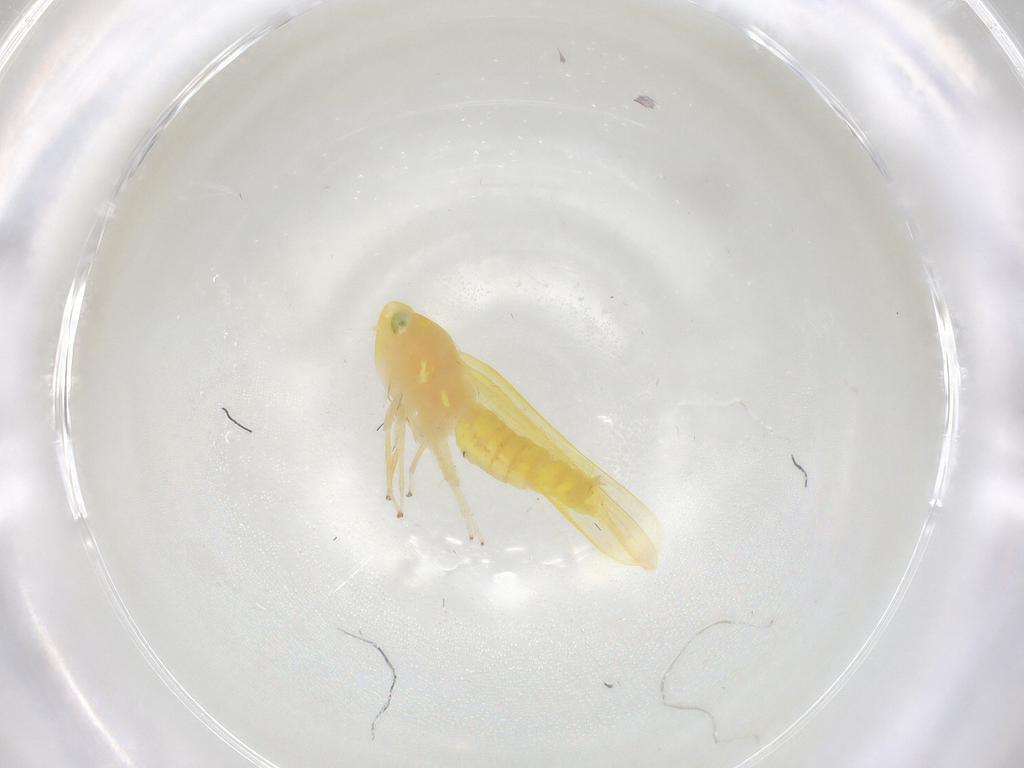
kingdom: Animalia
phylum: Arthropoda
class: Insecta
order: Hemiptera
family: Cicadellidae
